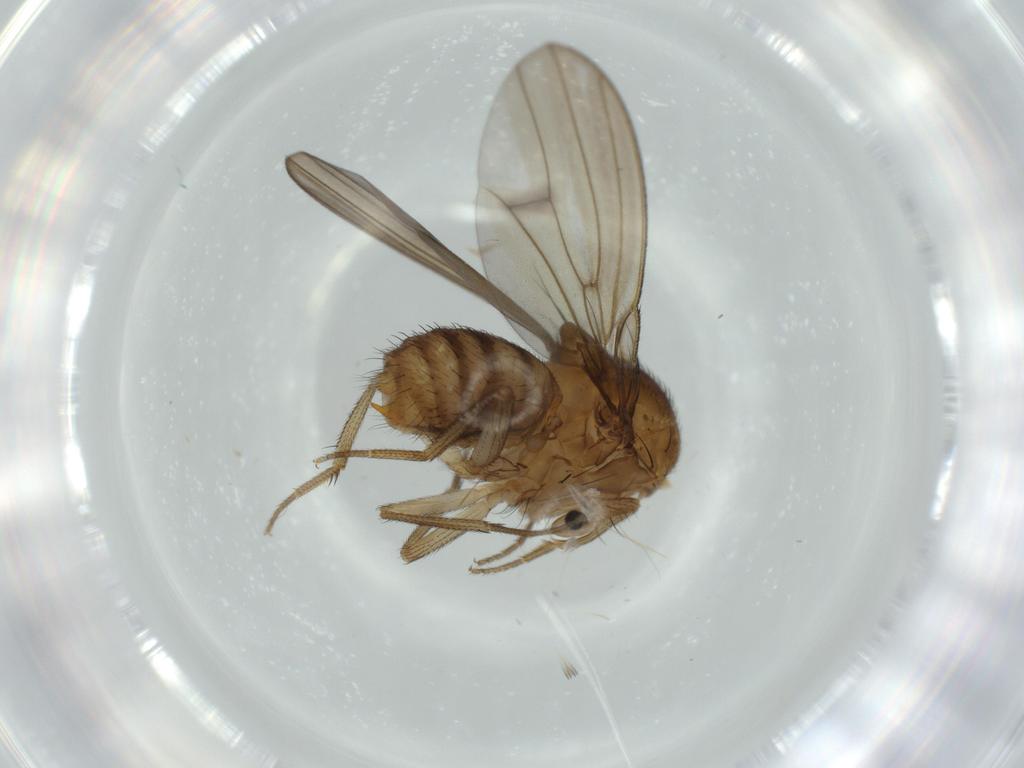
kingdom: Animalia
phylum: Arthropoda
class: Insecta
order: Diptera
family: Drosophilidae
